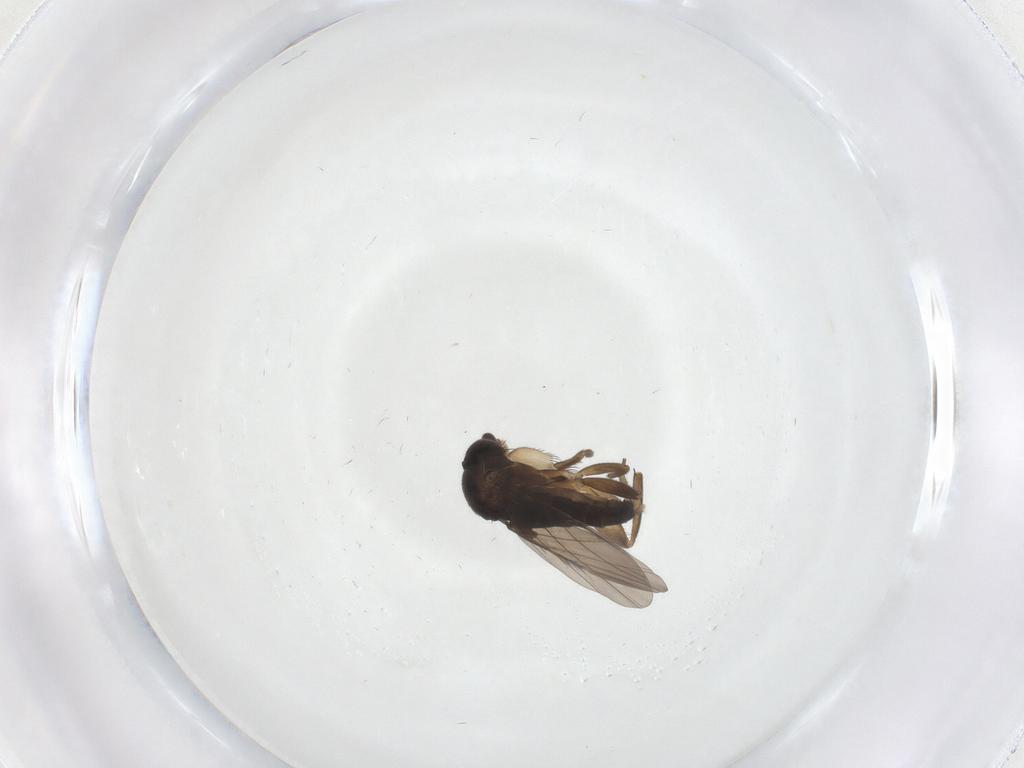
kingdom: Animalia
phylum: Arthropoda
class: Insecta
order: Diptera
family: Phoridae
